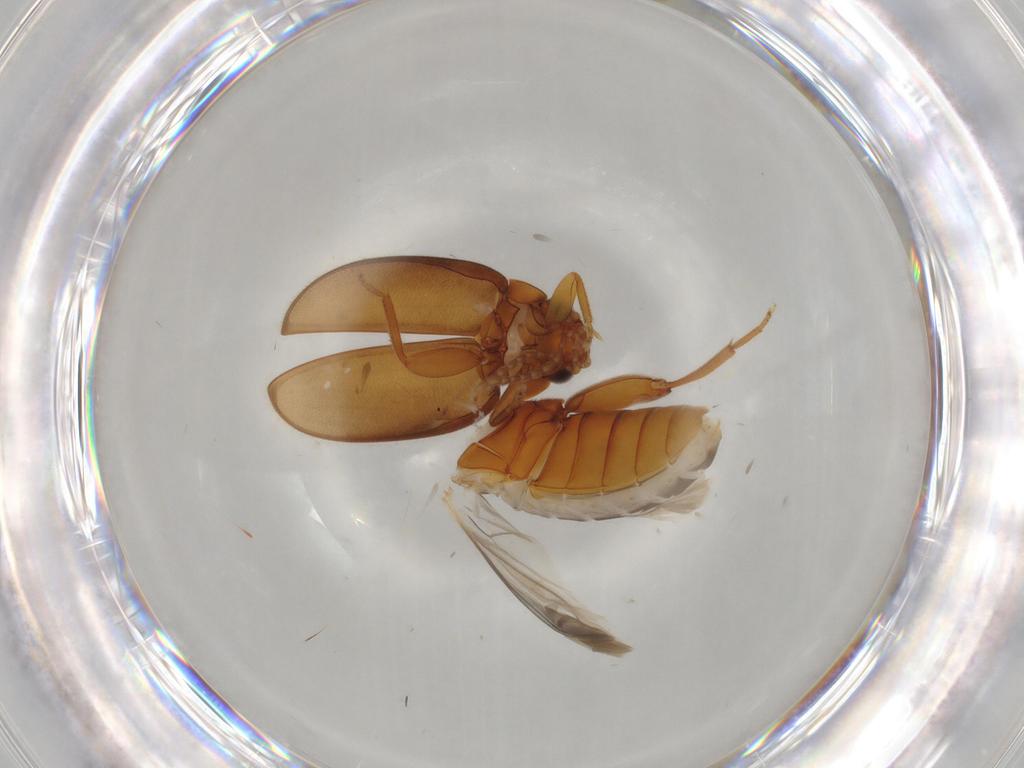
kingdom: Animalia
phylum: Arthropoda
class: Insecta
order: Coleoptera
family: Scirtidae
